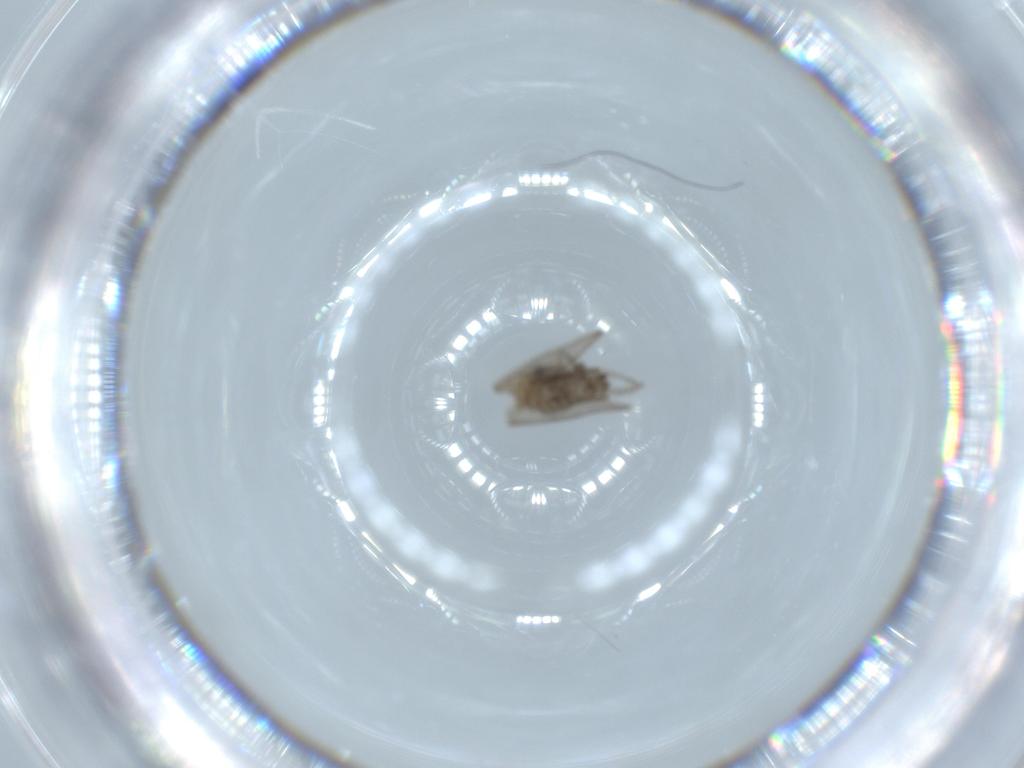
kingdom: Animalia
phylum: Arthropoda
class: Insecta
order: Diptera
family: Psychodidae
